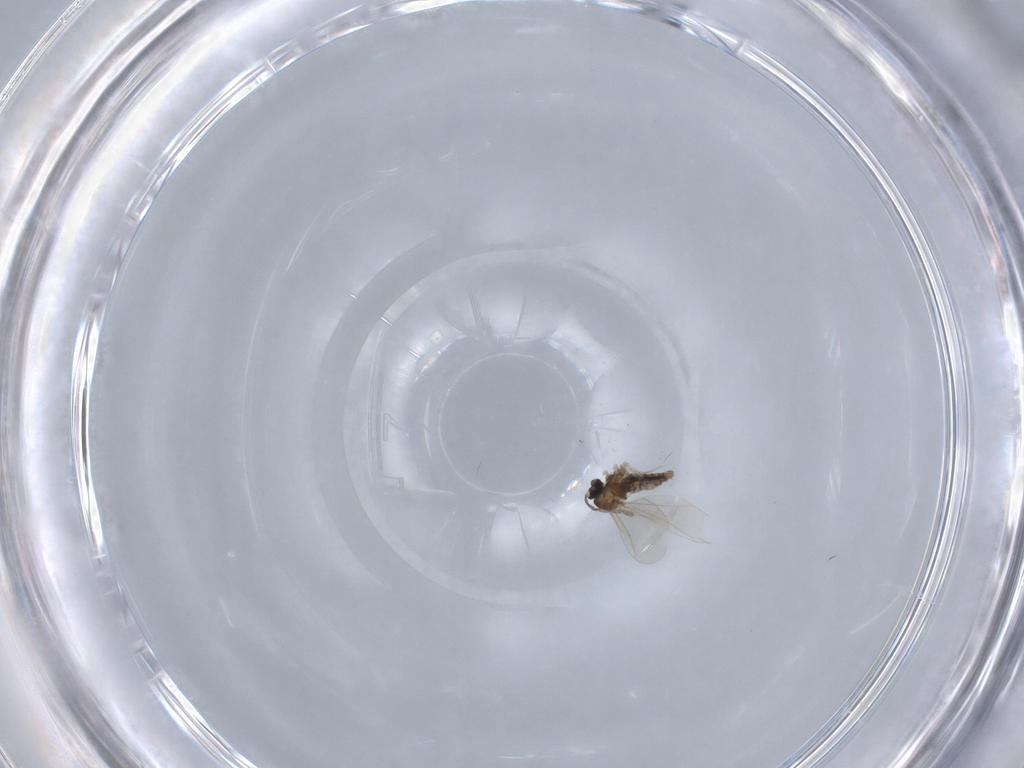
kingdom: Animalia
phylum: Arthropoda
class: Insecta
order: Diptera
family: Cecidomyiidae
